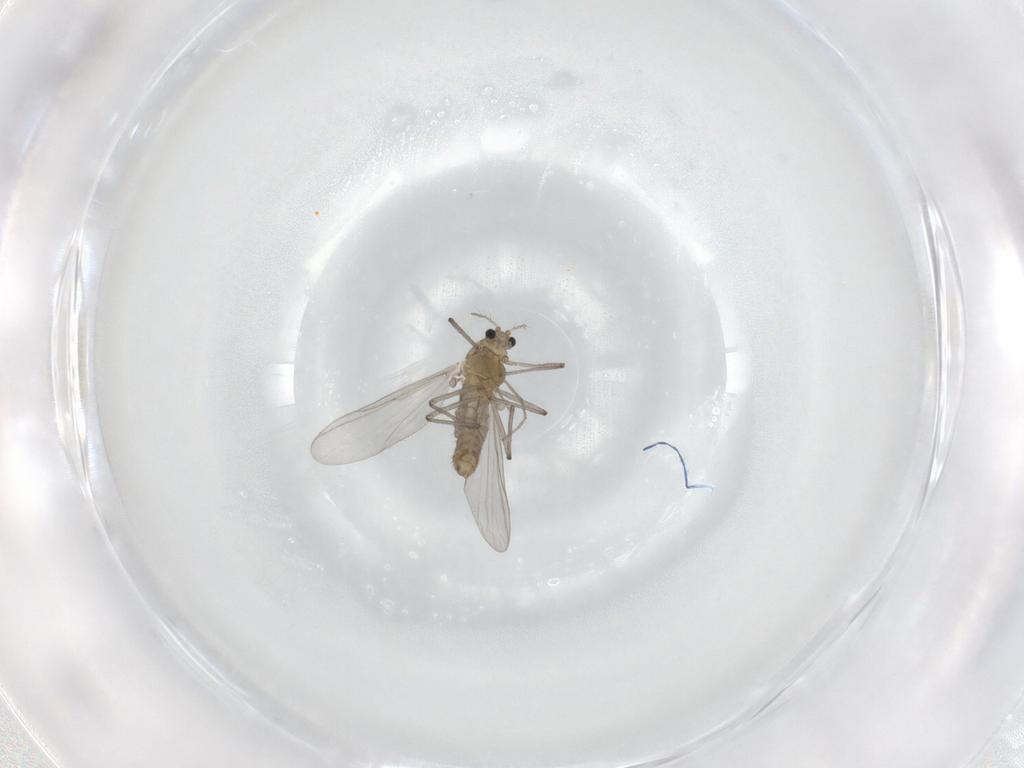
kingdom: Animalia
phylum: Arthropoda
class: Insecta
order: Diptera
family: Chironomidae
